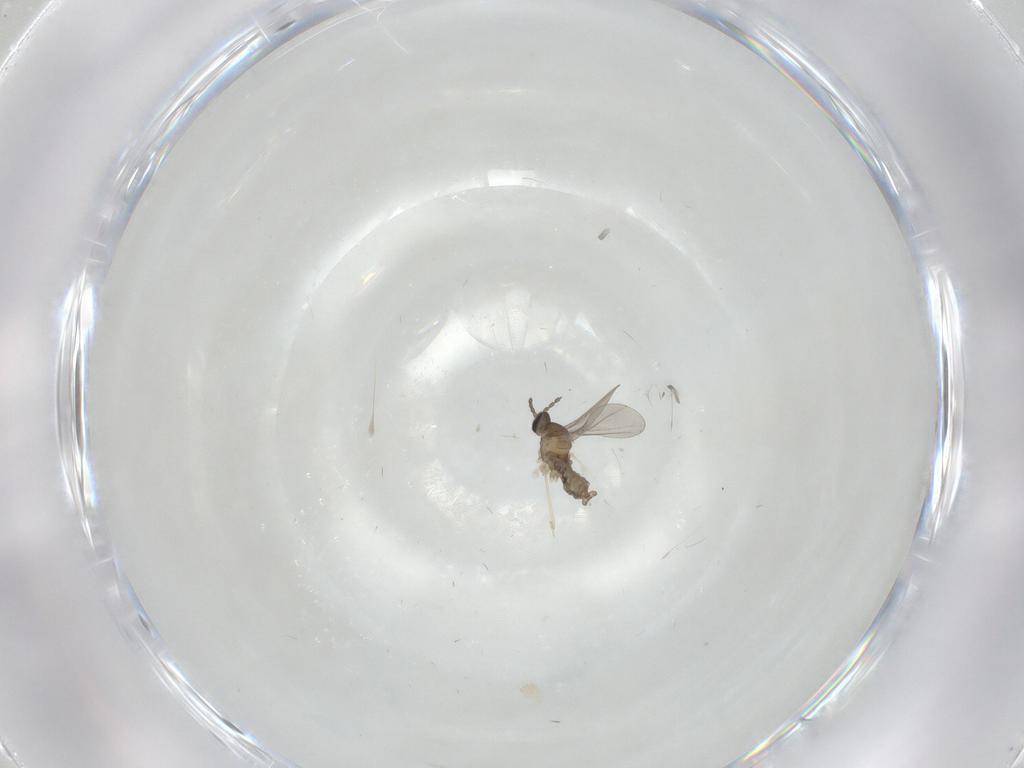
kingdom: Animalia
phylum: Arthropoda
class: Insecta
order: Diptera
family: Cecidomyiidae
